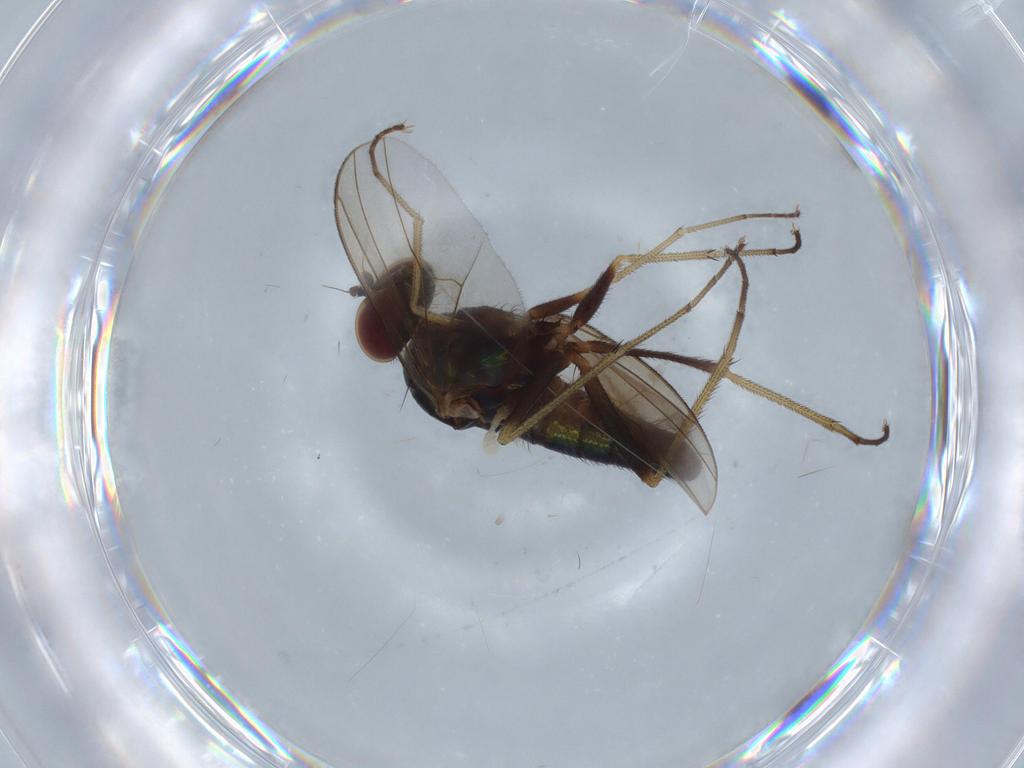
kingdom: Animalia
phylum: Arthropoda
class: Insecta
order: Diptera
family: Dolichopodidae
